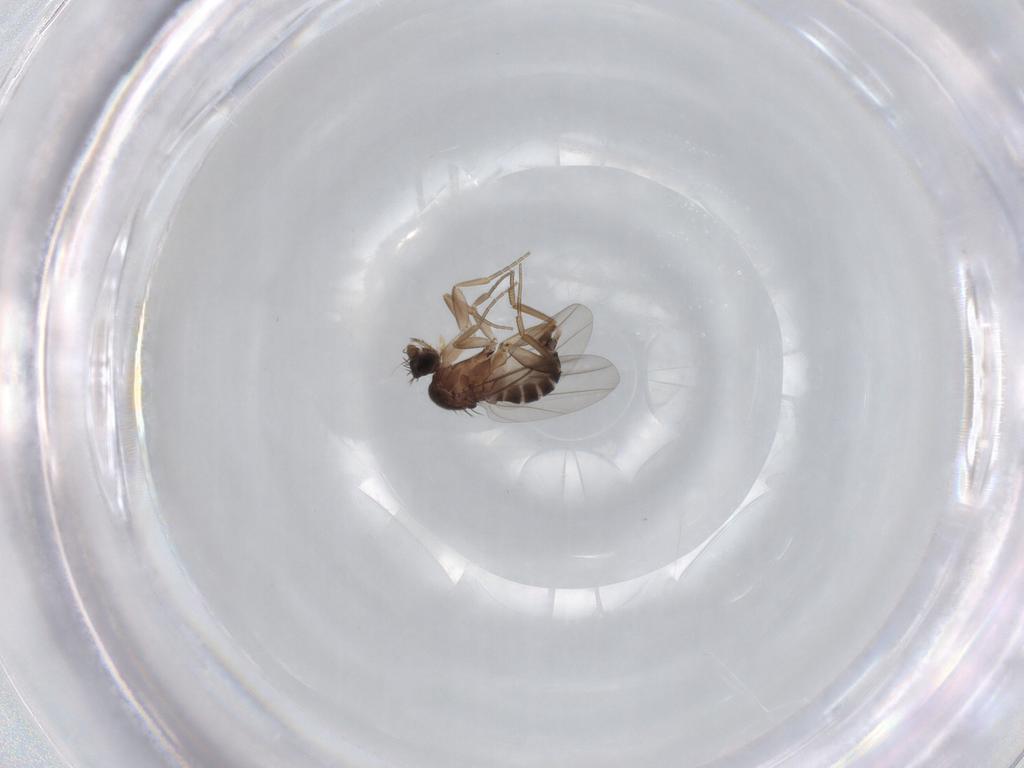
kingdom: Animalia
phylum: Arthropoda
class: Insecta
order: Diptera
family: Phoridae
